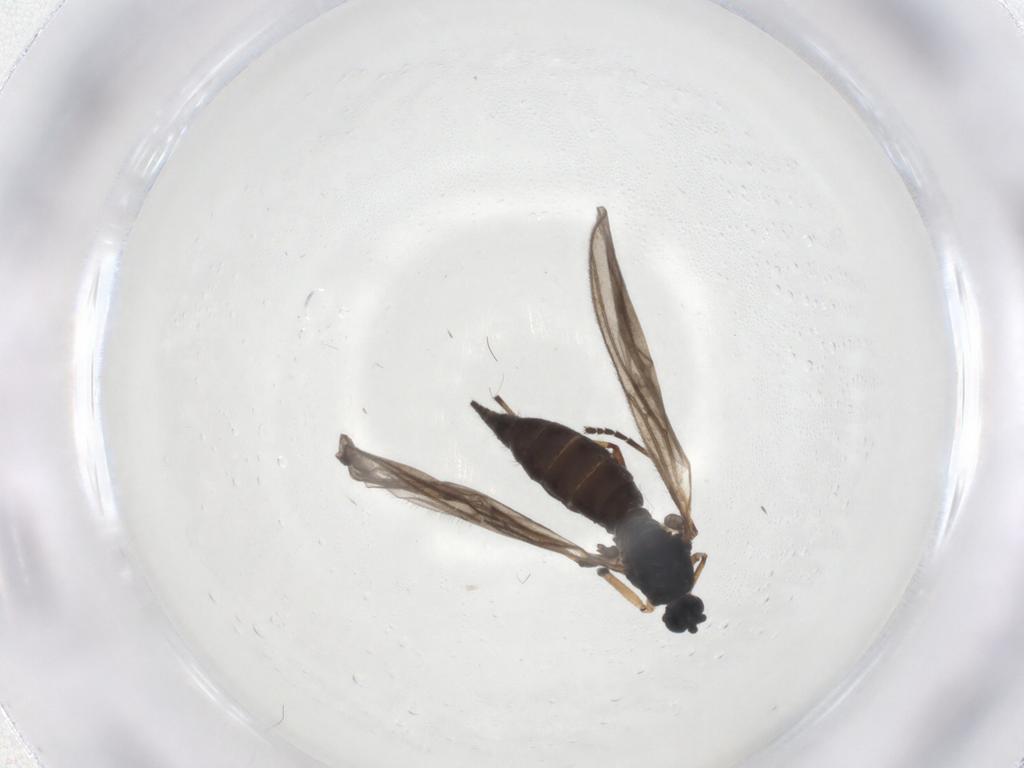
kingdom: Animalia
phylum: Arthropoda
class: Insecta
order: Diptera
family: Sciaridae
